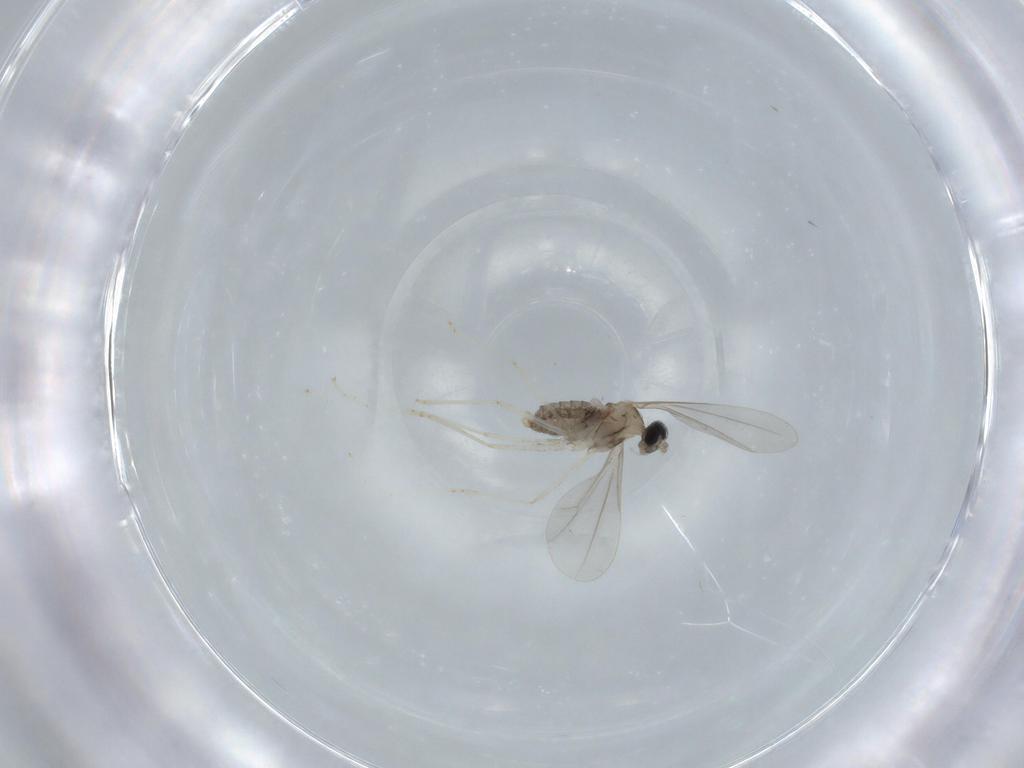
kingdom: Animalia
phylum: Arthropoda
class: Insecta
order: Diptera
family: Cecidomyiidae
